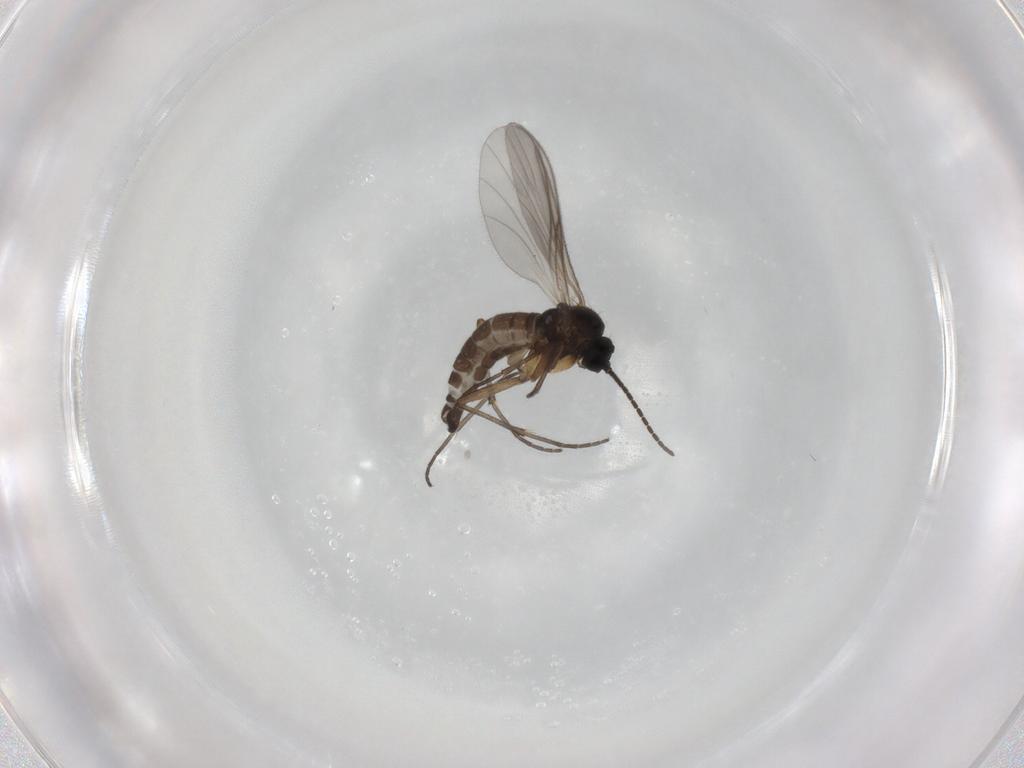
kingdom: Animalia
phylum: Arthropoda
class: Insecta
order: Diptera
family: Sciaridae
